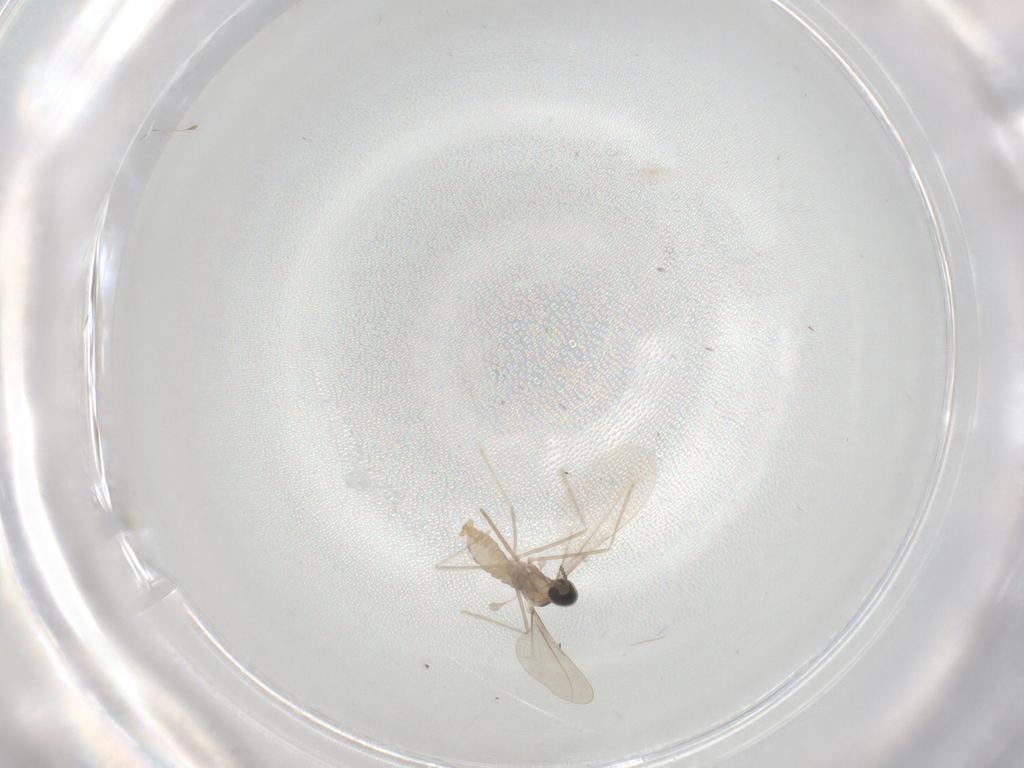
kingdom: Animalia
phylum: Arthropoda
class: Insecta
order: Diptera
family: Cecidomyiidae
